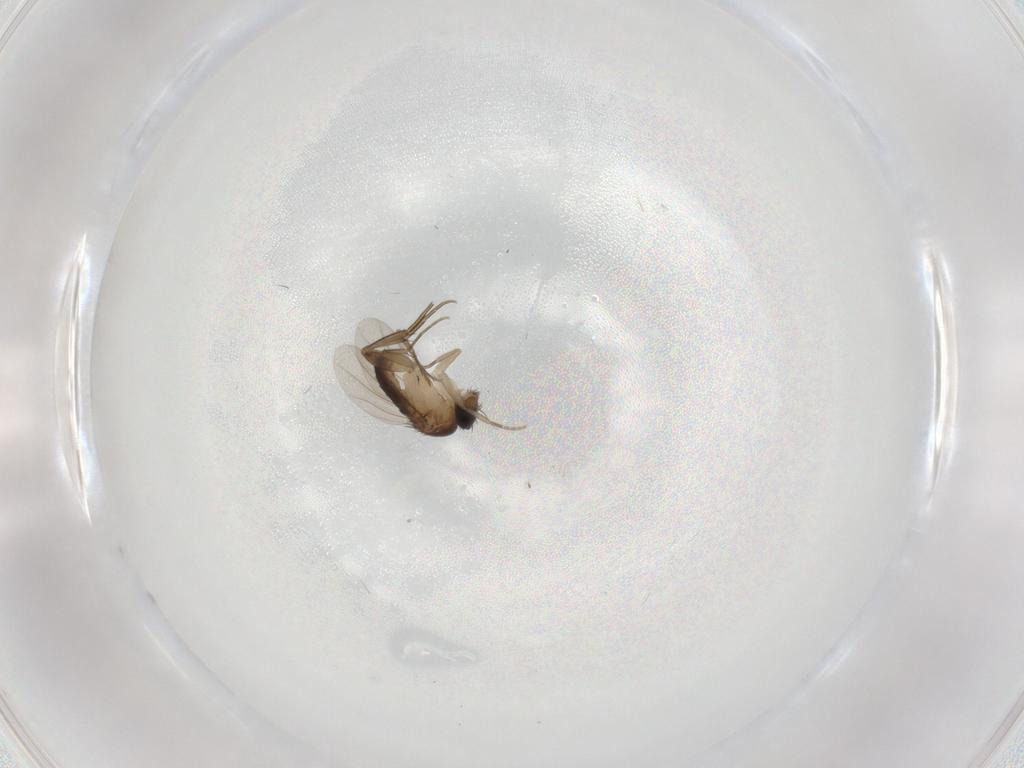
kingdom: Animalia
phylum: Arthropoda
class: Insecta
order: Diptera
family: Phoridae
